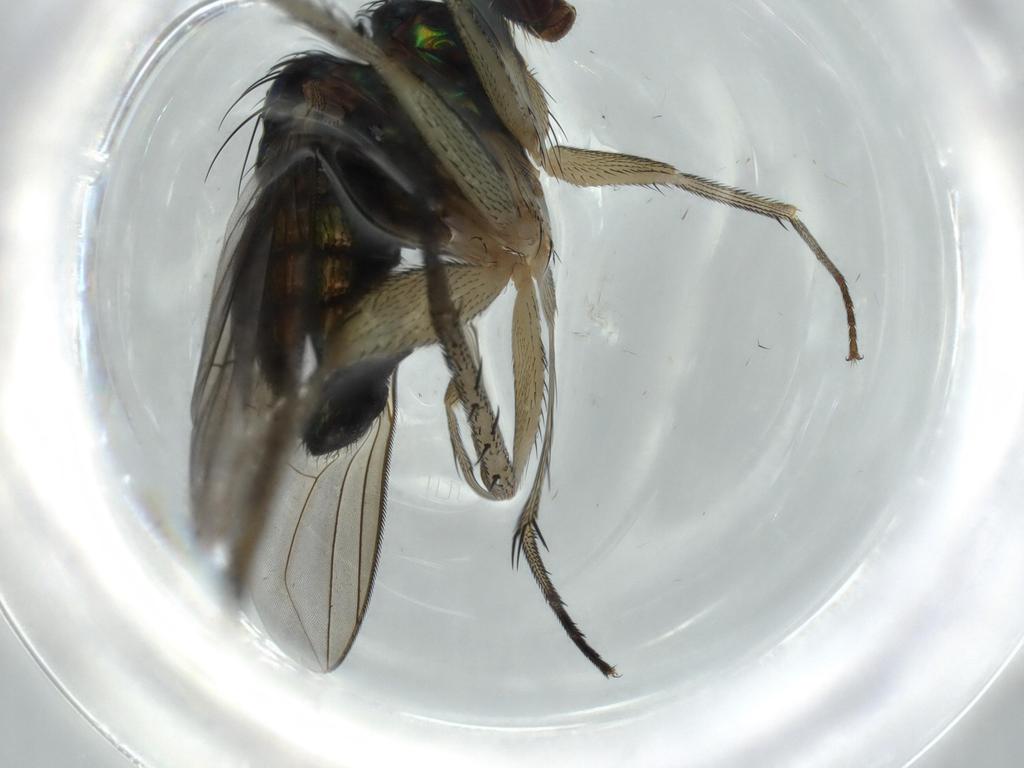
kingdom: Animalia
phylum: Arthropoda
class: Insecta
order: Diptera
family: Dolichopodidae
